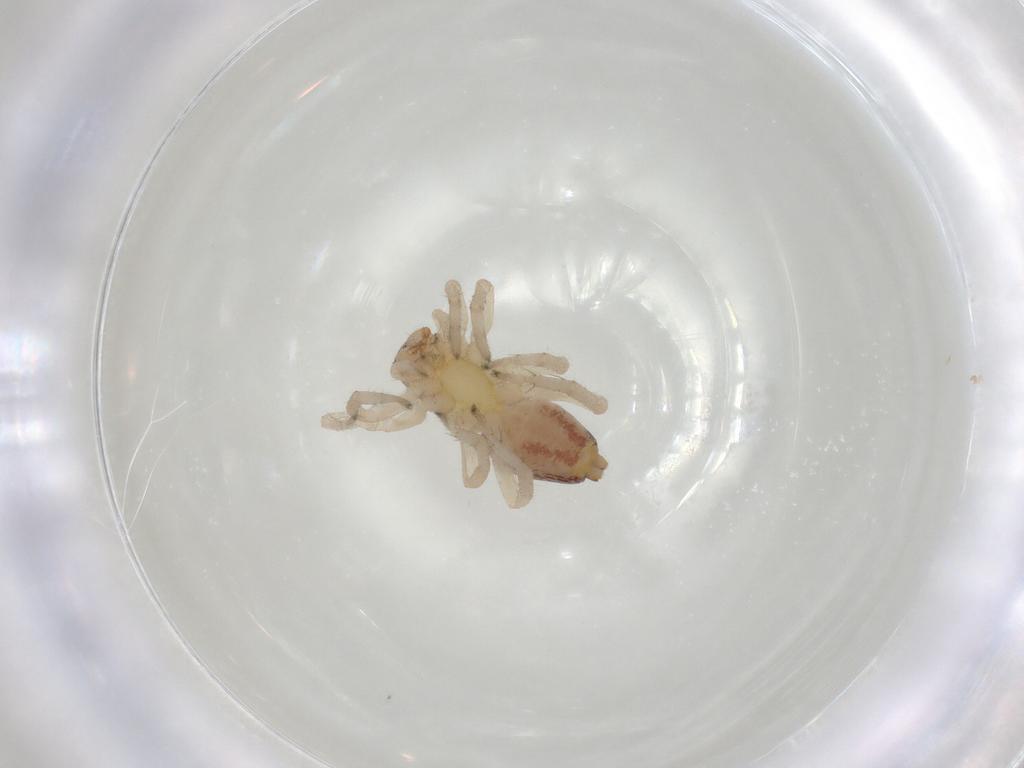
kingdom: Animalia
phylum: Arthropoda
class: Arachnida
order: Araneae
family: Clubionidae
